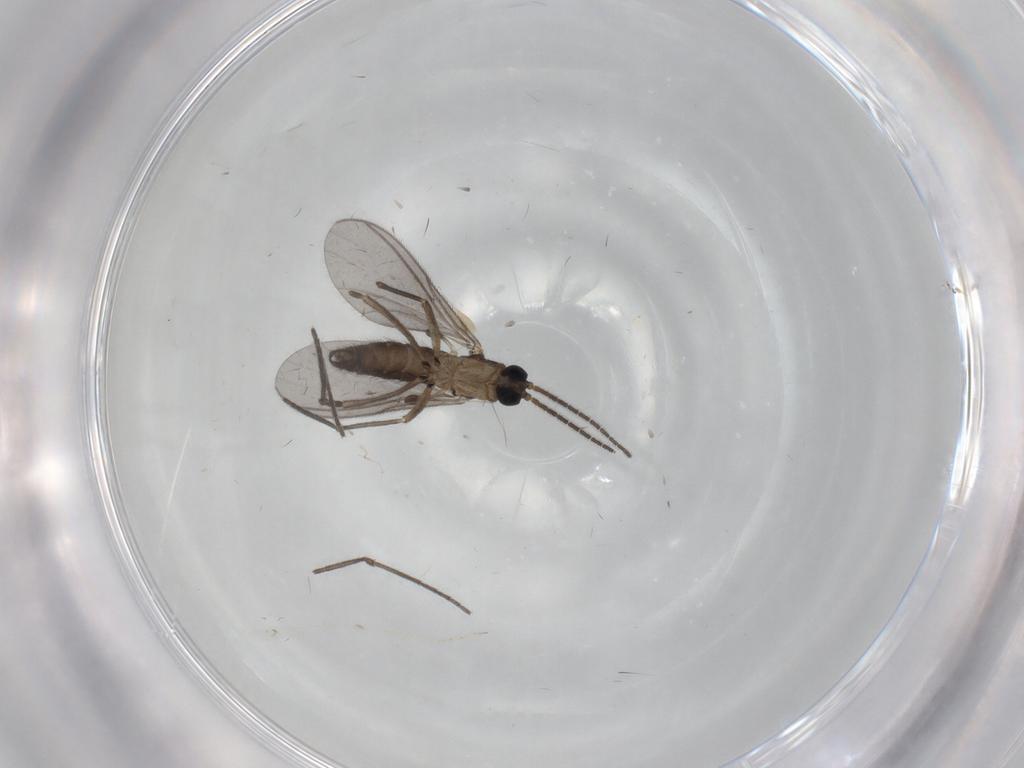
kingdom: Animalia
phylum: Arthropoda
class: Insecta
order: Diptera
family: Sciaridae
